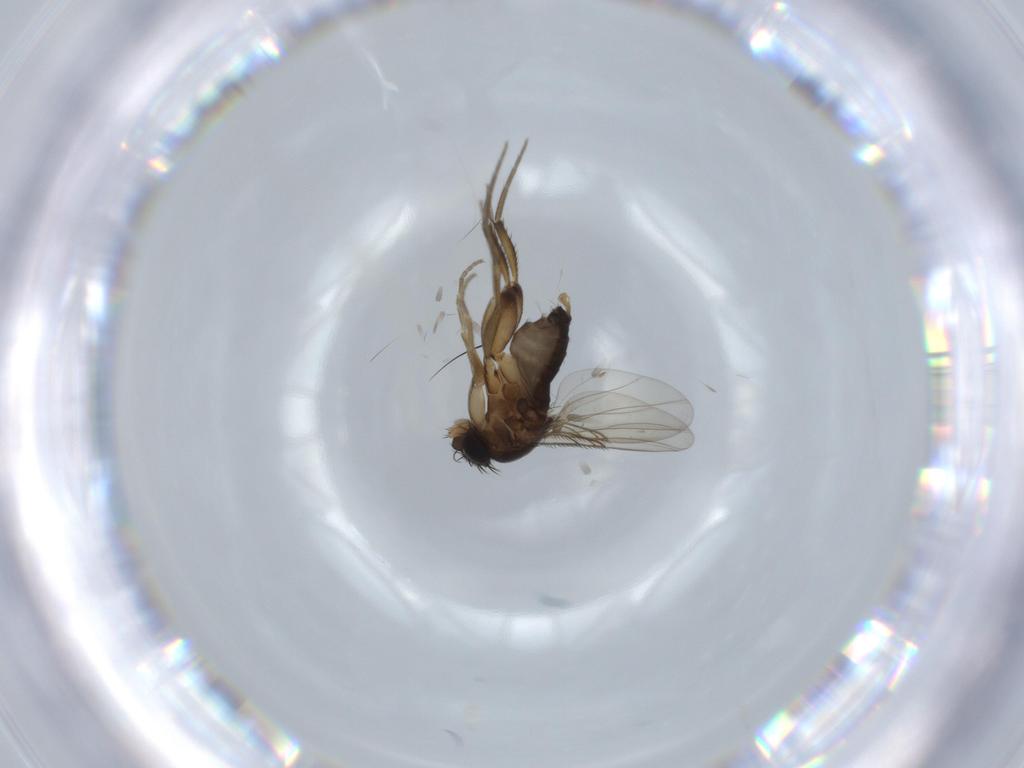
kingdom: Animalia
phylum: Arthropoda
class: Insecta
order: Diptera
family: Phoridae
